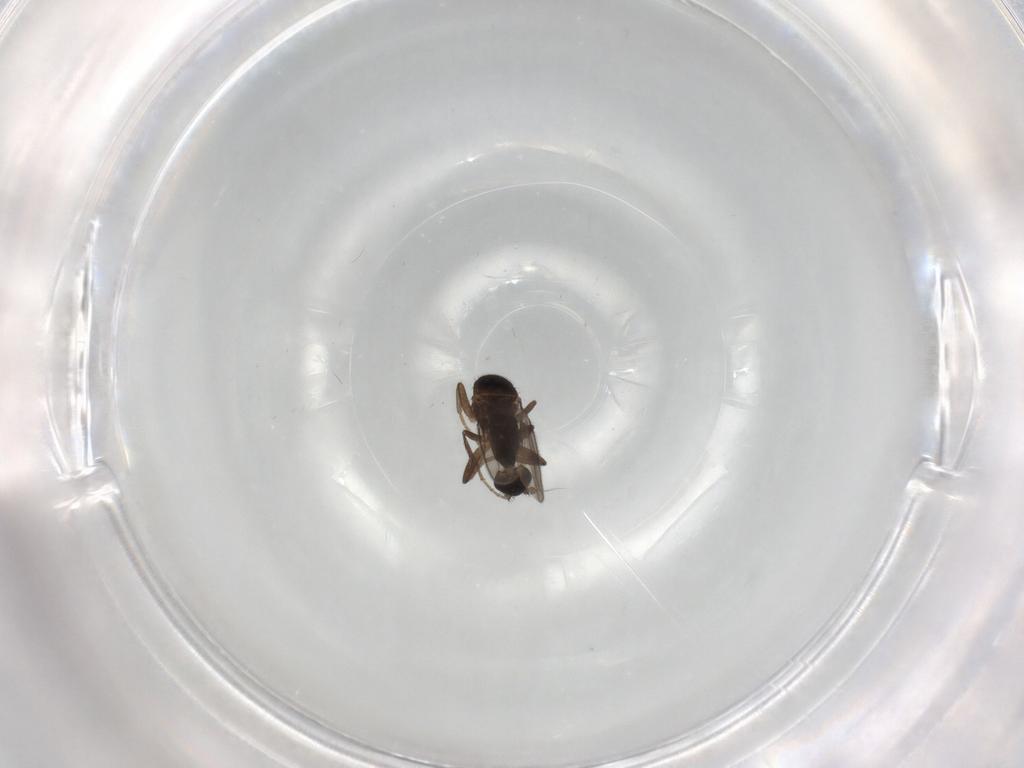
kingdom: Animalia
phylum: Arthropoda
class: Insecta
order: Diptera
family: Sphaeroceridae
